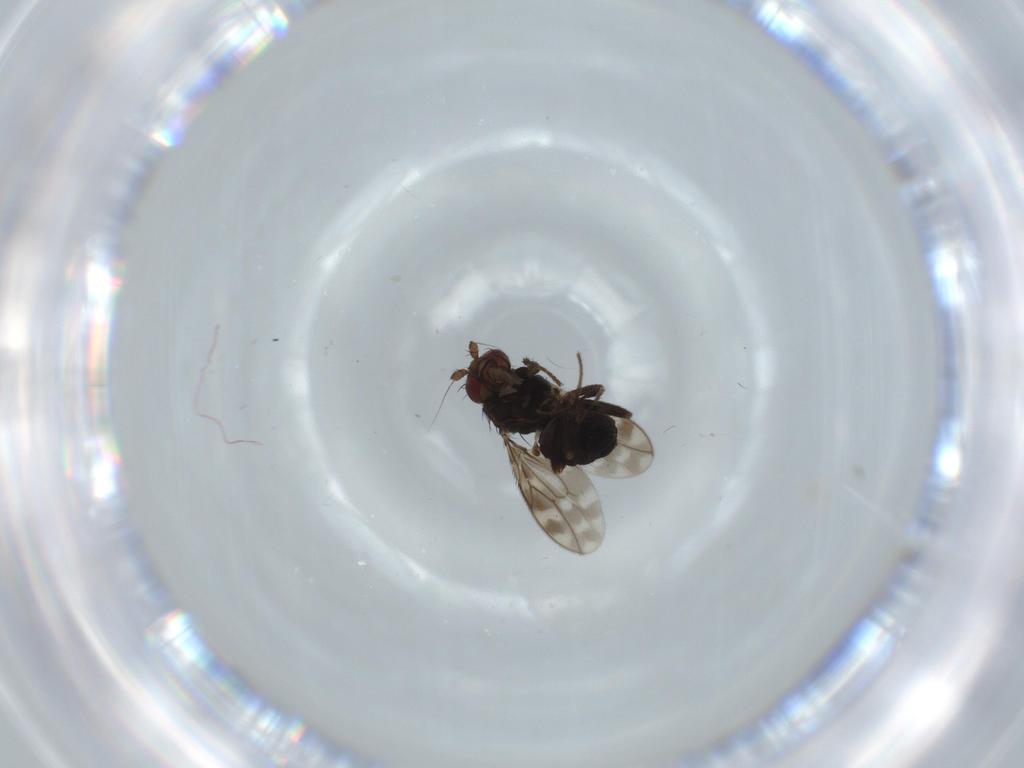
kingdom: Animalia
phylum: Arthropoda
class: Insecta
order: Diptera
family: Sphaeroceridae
